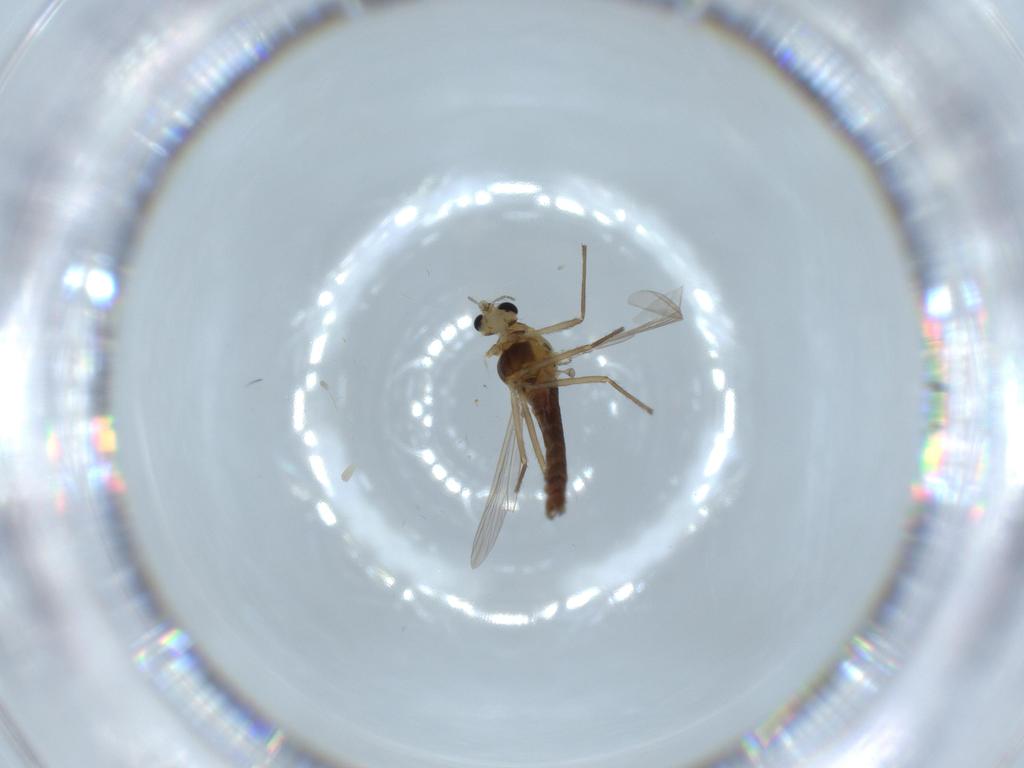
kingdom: Animalia
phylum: Arthropoda
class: Insecta
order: Diptera
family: Chironomidae
